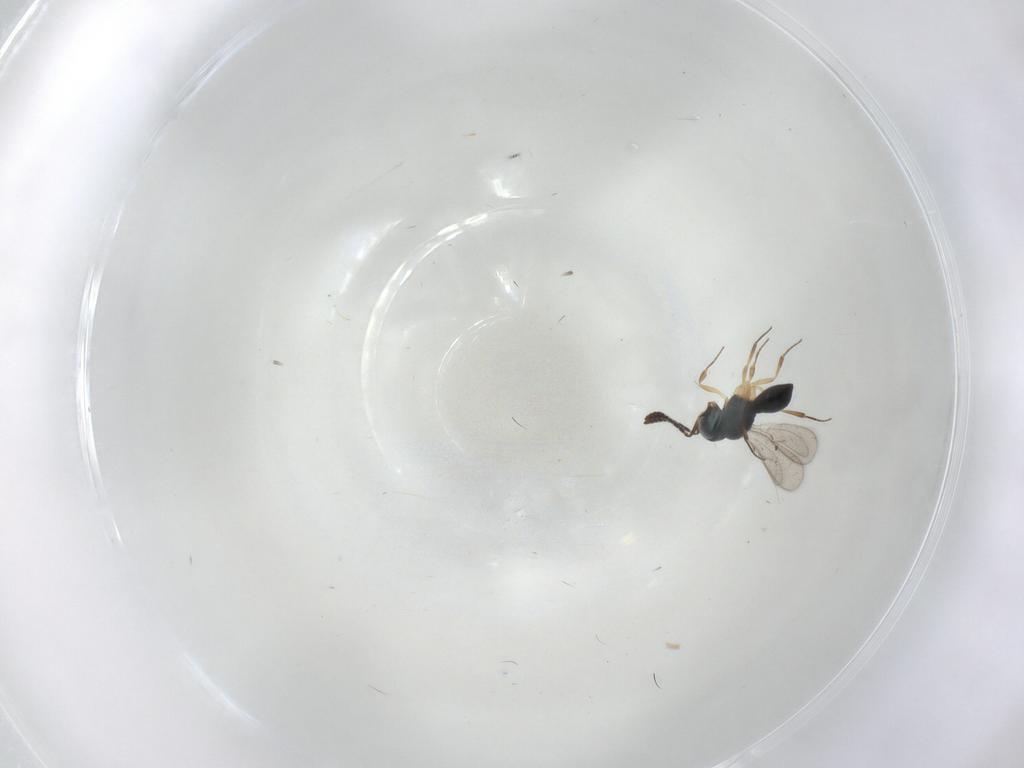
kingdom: Animalia
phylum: Arthropoda
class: Insecta
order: Hymenoptera
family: Scelionidae
